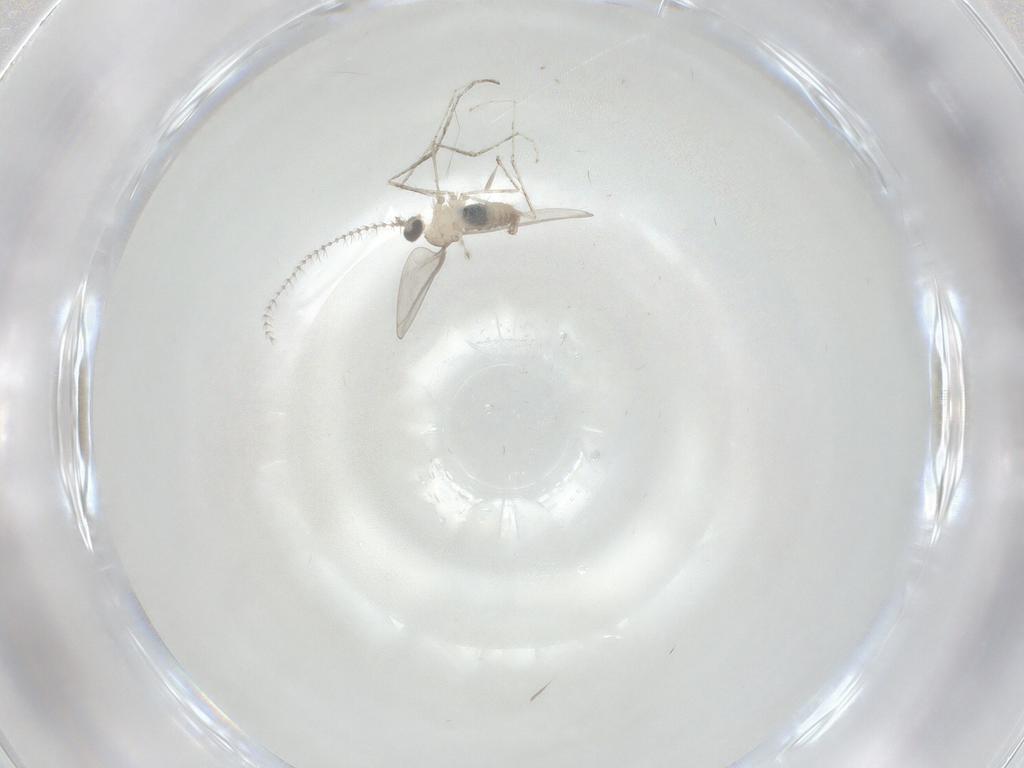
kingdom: Animalia
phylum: Arthropoda
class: Insecta
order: Diptera
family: Cecidomyiidae
